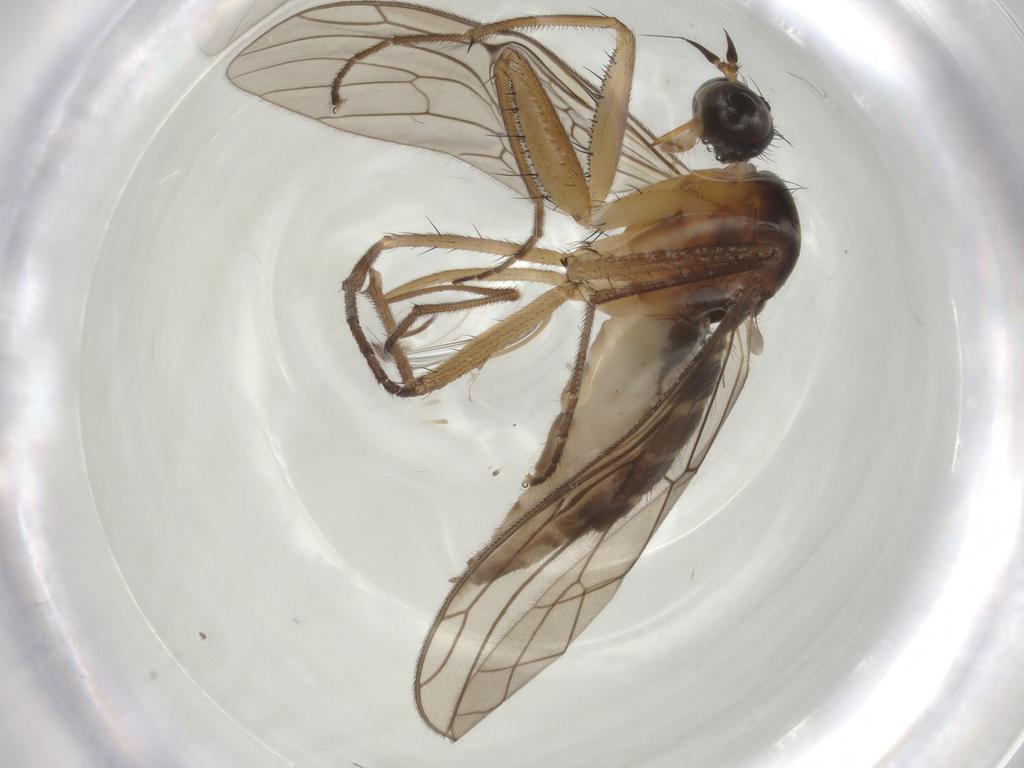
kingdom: Animalia
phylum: Arthropoda
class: Insecta
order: Diptera
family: Chironomidae
